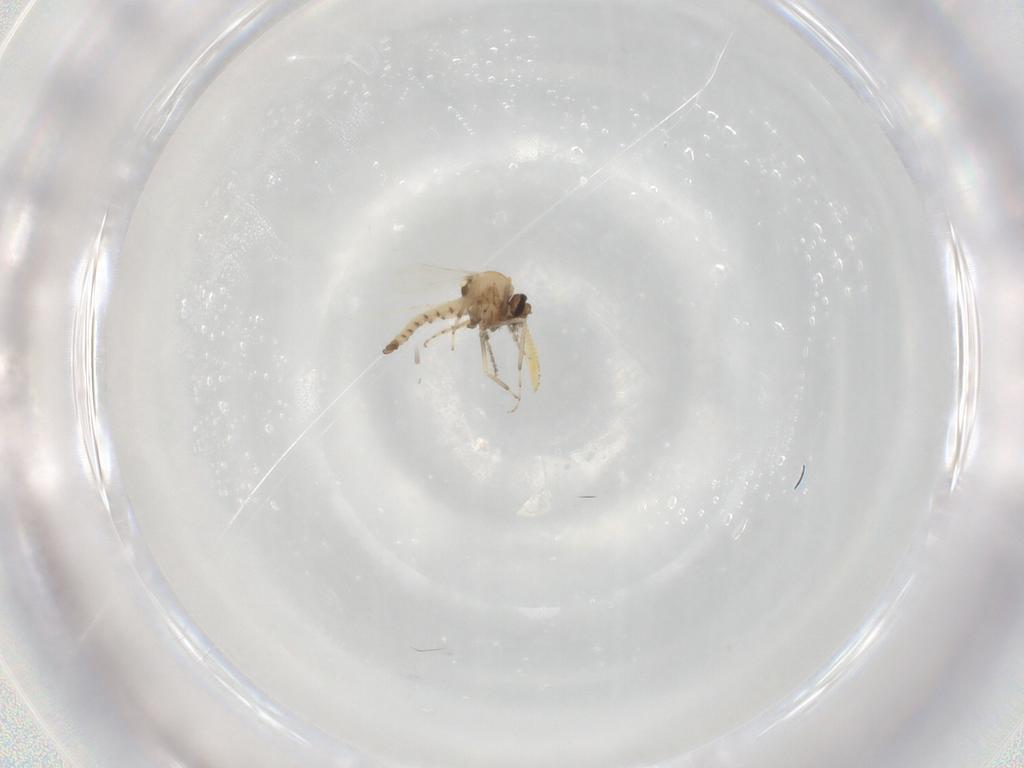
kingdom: Animalia
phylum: Arthropoda
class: Insecta
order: Diptera
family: Ceratopogonidae
